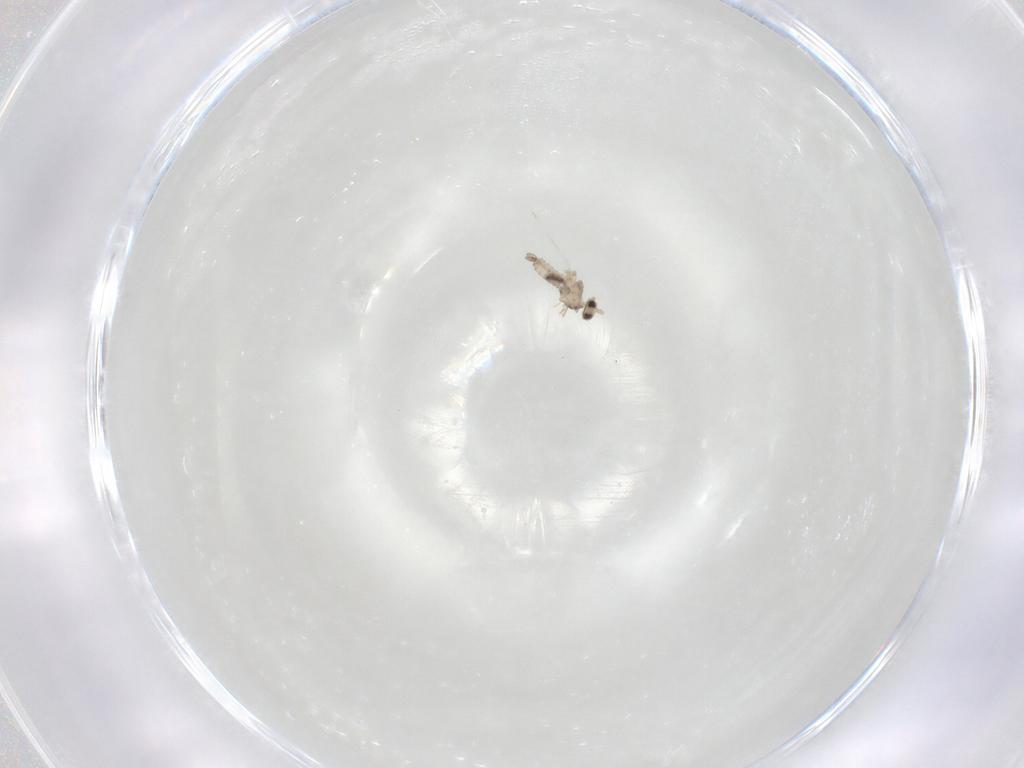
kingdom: Animalia
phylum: Arthropoda
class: Insecta
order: Diptera
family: Cecidomyiidae
